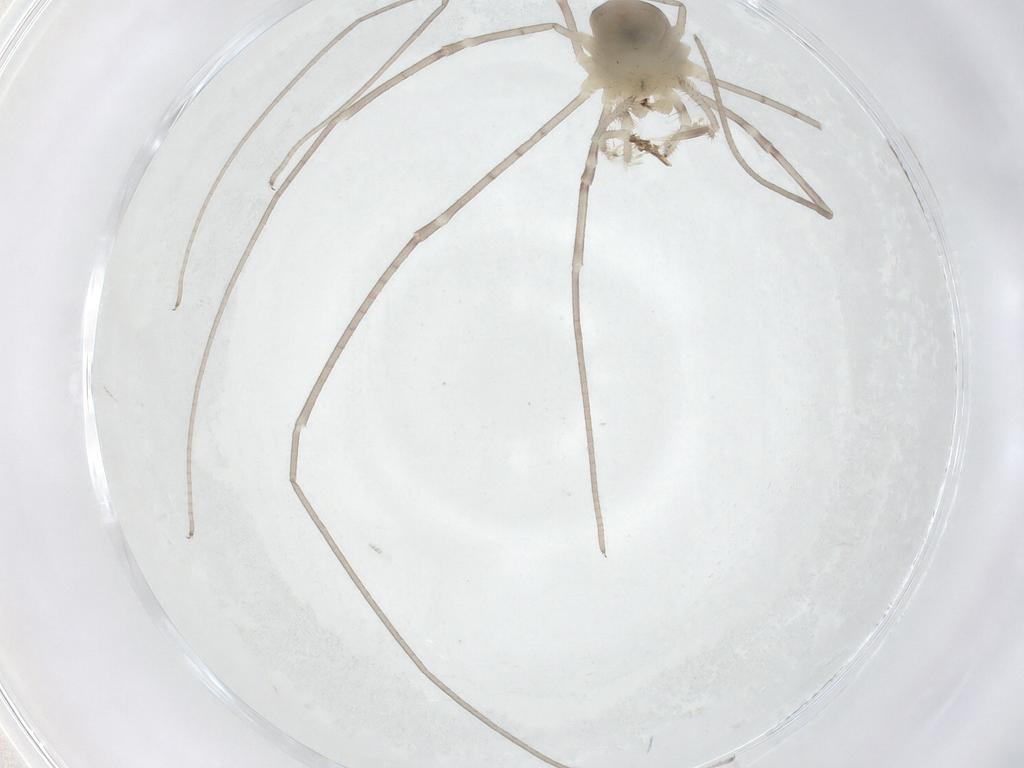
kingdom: Animalia
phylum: Arthropoda
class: Arachnida
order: Opiliones
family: Sclerosomatidae
